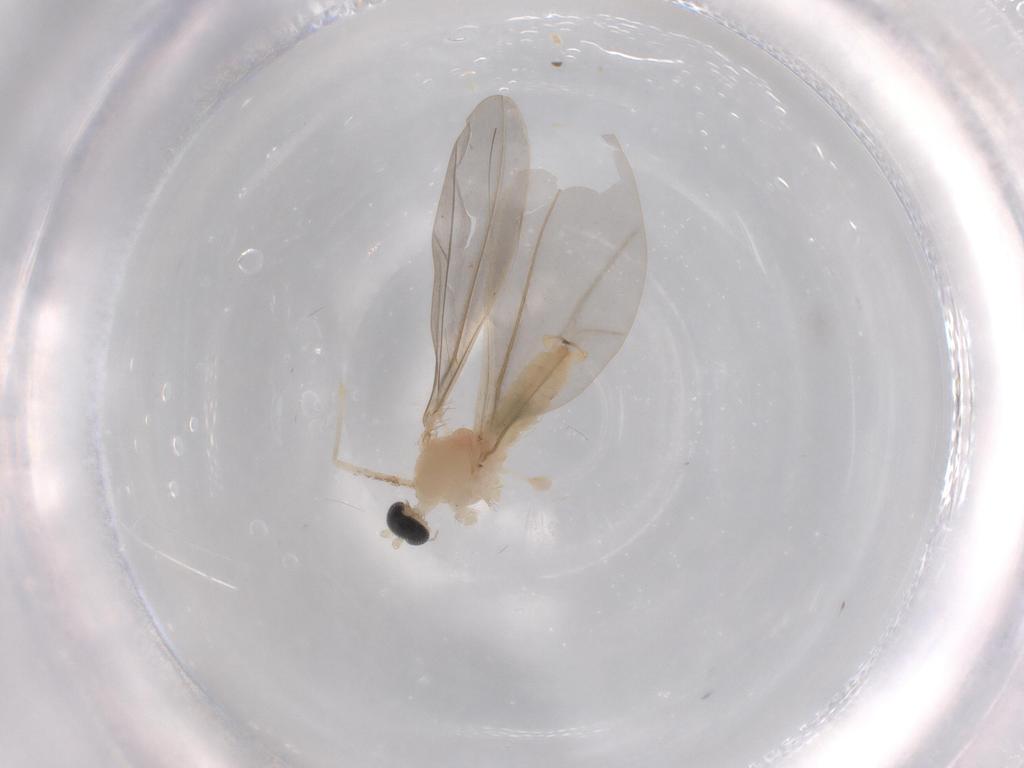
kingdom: Animalia
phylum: Arthropoda
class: Insecta
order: Diptera
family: Cecidomyiidae
